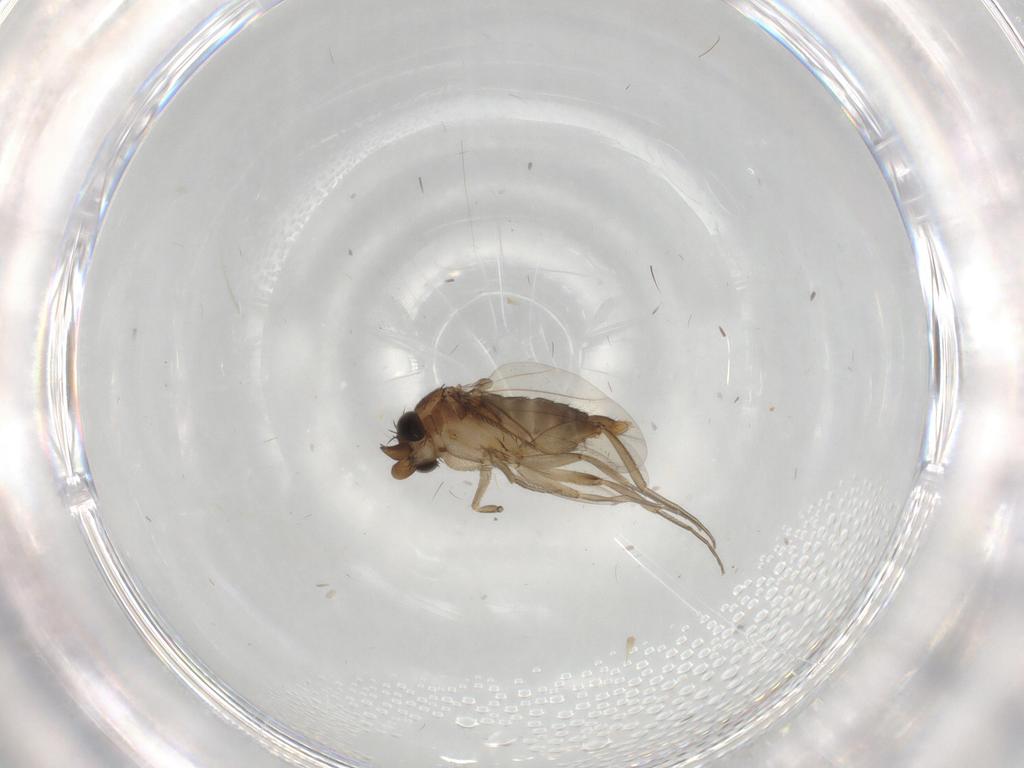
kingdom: Animalia
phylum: Arthropoda
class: Insecta
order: Diptera
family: Phoridae
